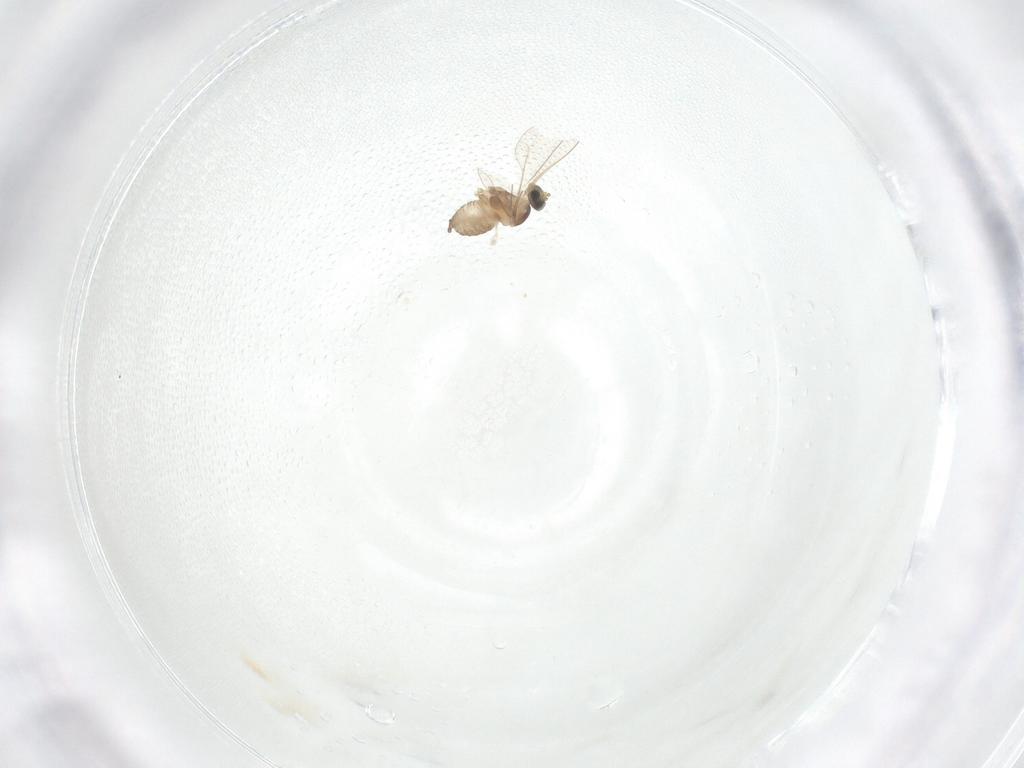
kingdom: Animalia
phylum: Arthropoda
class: Insecta
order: Diptera
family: Cecidomyiidae
